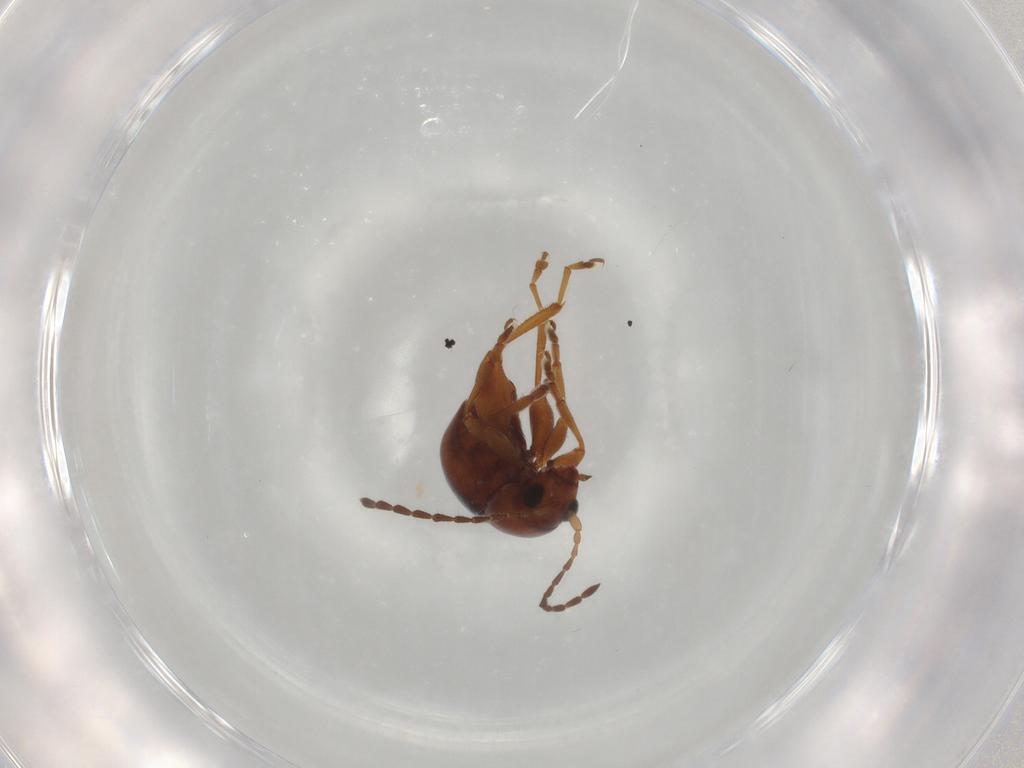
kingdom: Animalia
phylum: Arthropoda
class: Insecta
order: Coleoptera
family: Chrysomelidae
